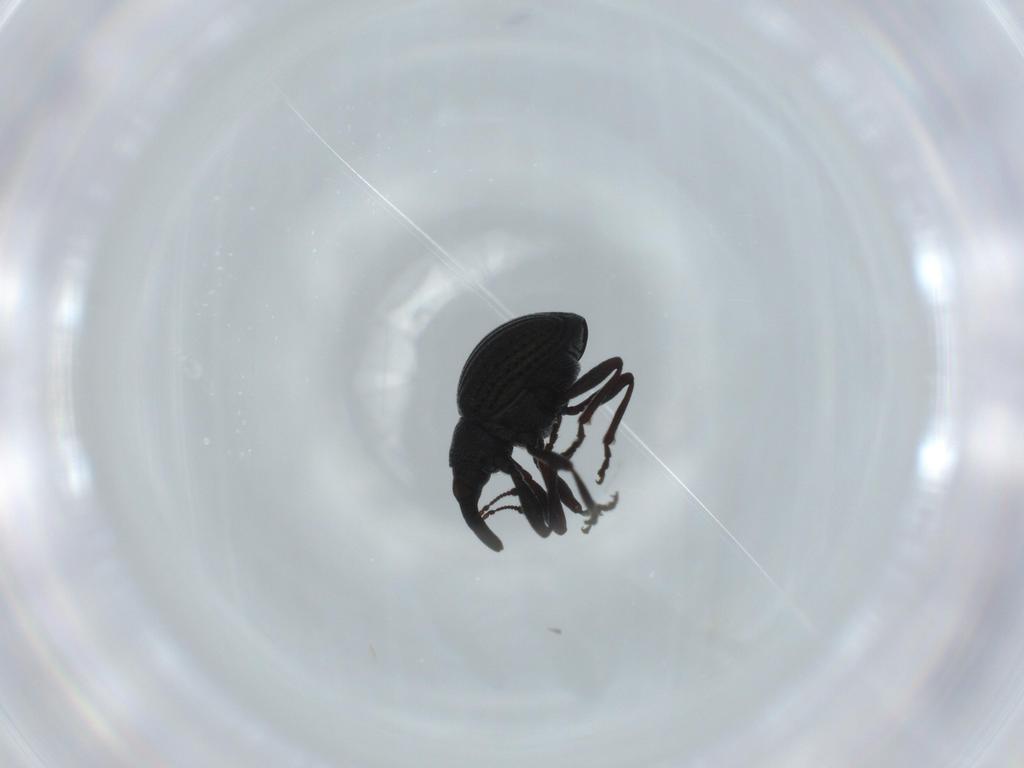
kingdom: Animalia
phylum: Arthropoda
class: Insecta
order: Coleoptera
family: Brentidae
